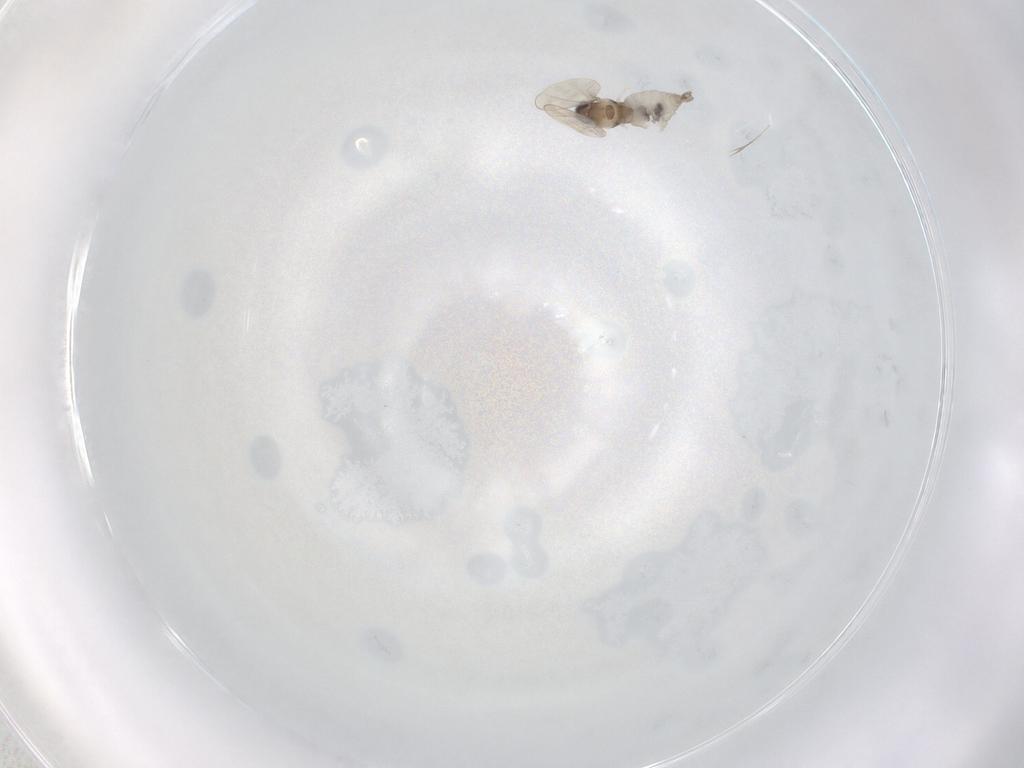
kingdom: Animalia
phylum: Arthropoda
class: Insecta
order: Diptera
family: Cecidomyiidae
